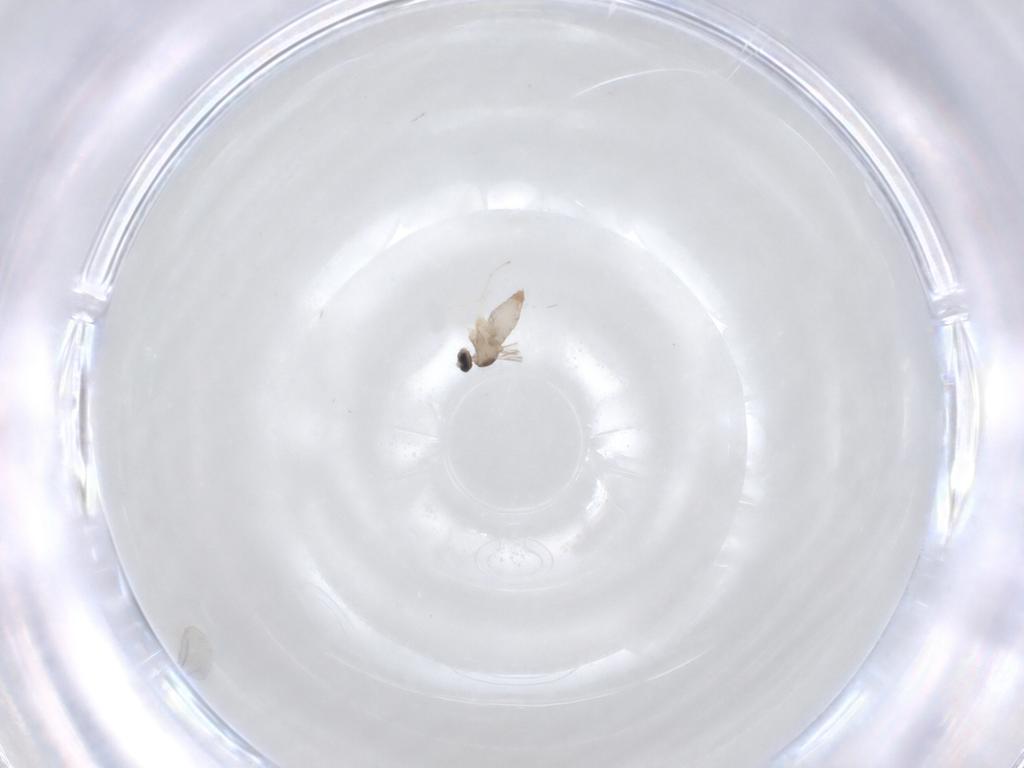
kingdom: Animalia
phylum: Arthropoda
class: Insecta
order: Diptera
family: Cecidomyiidae
